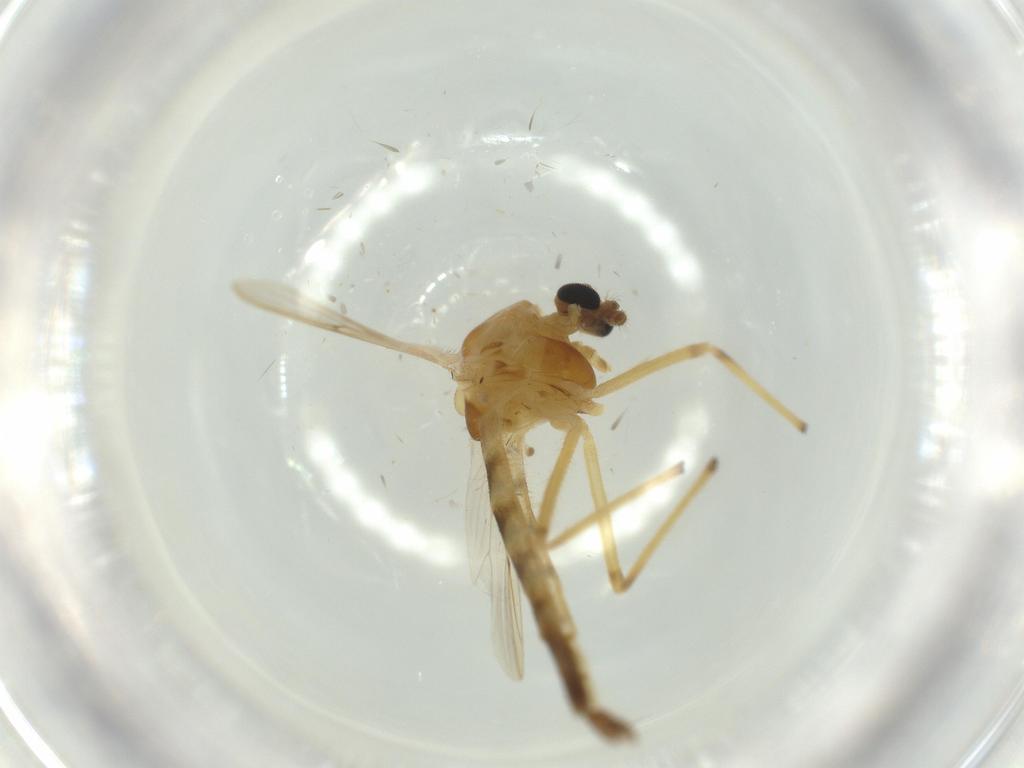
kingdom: Animalia
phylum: Arthropoda
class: Insecta
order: Diptera
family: Chironomidae
